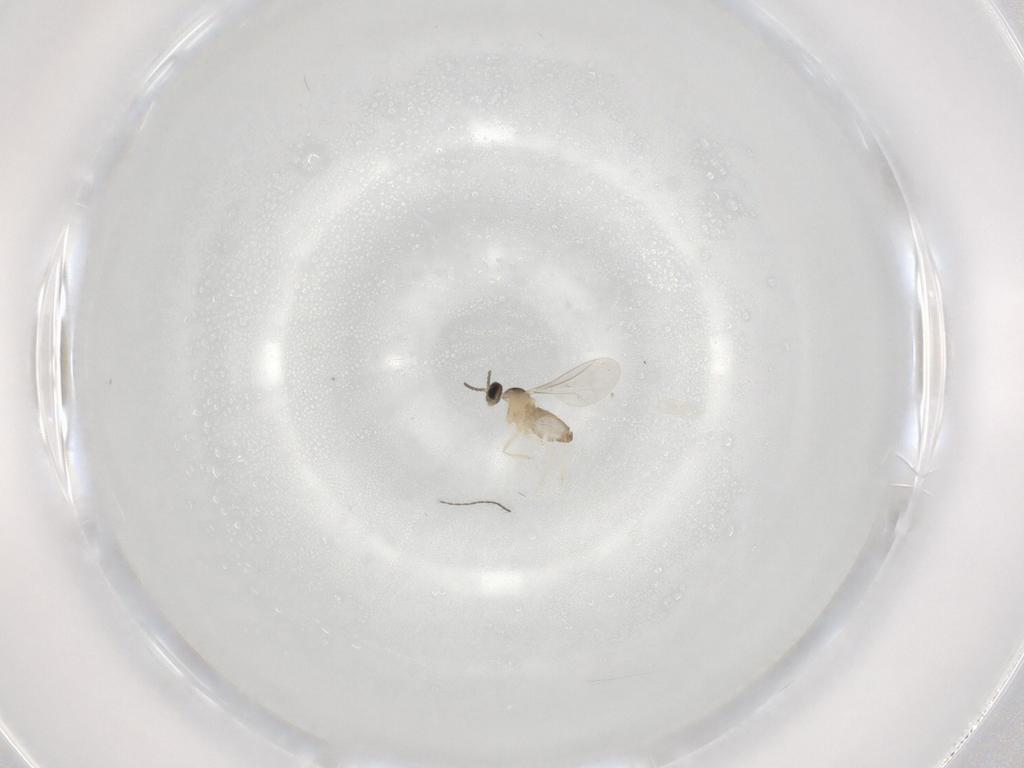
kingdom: Animalia
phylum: Arthropoda
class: Insecta
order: Diptera
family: Cecidomyiidae
